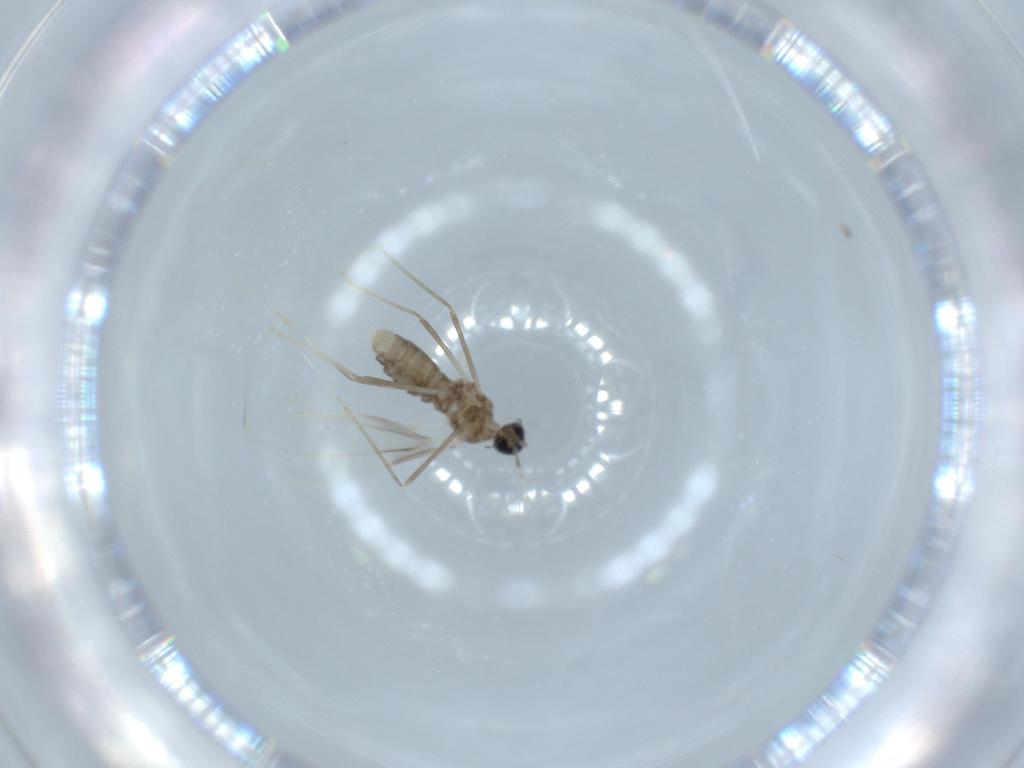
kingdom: Animalia
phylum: Arthropoda
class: Insecta
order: Diptera
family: Cecidomyiidae
